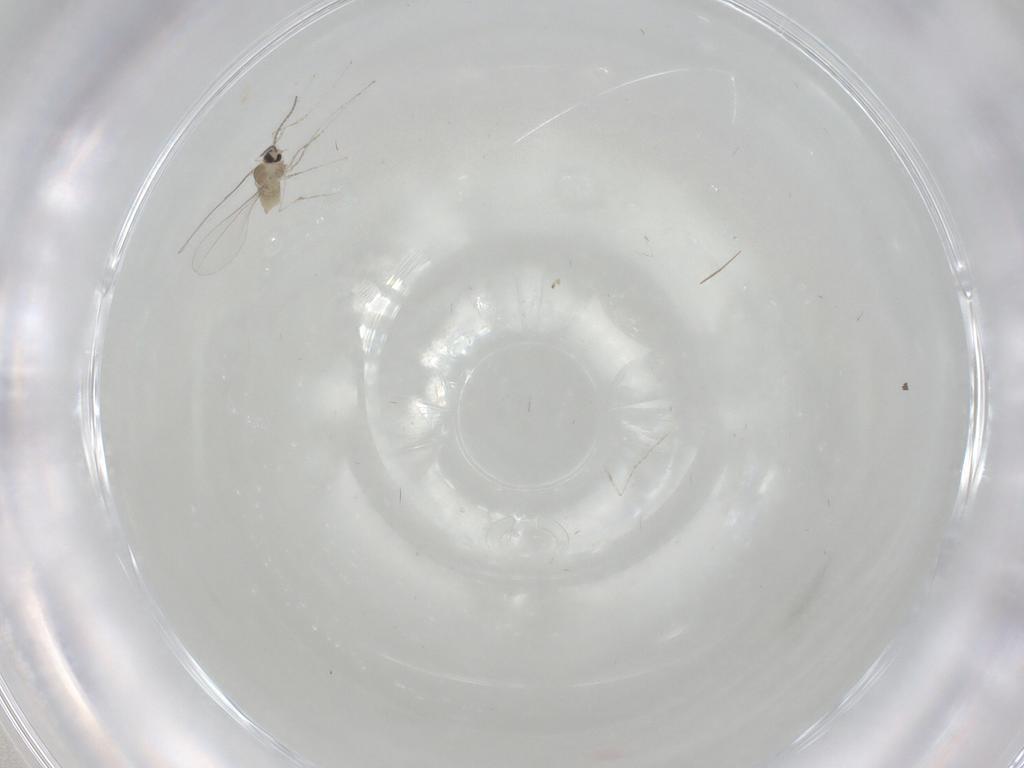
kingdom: Animalia
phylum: Arthropoda
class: Insecta
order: Diptera
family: Cecidomyiidae
